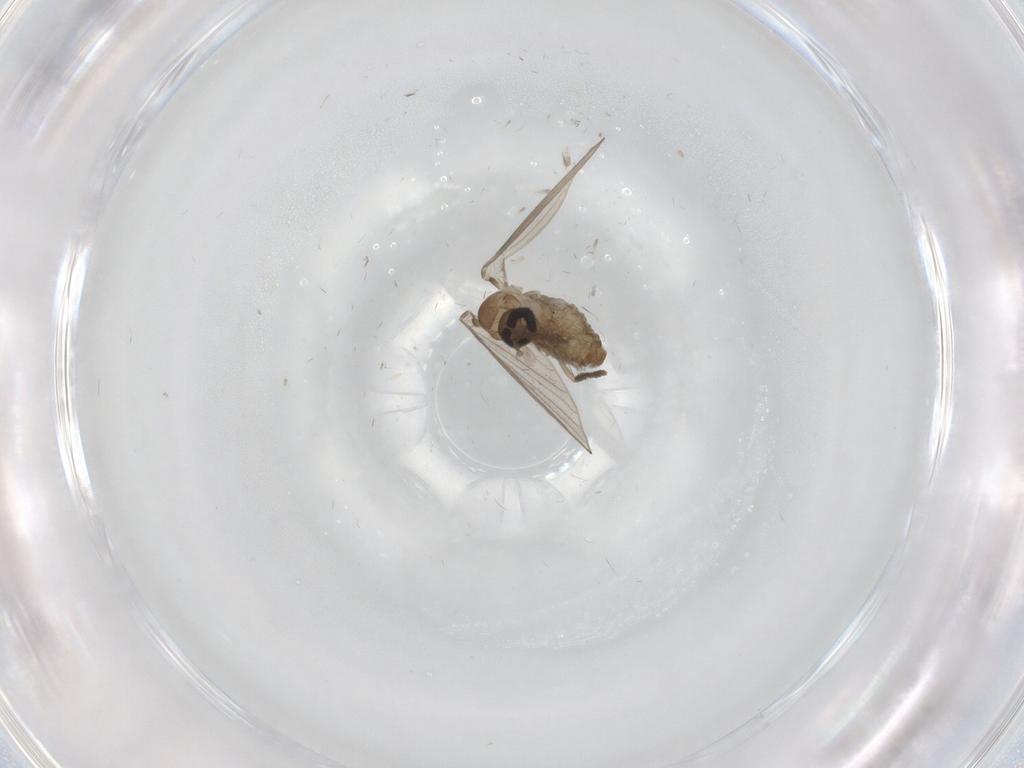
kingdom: Animalia
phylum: Arthropoda
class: Insecta
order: Diptera
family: Psychodidae
